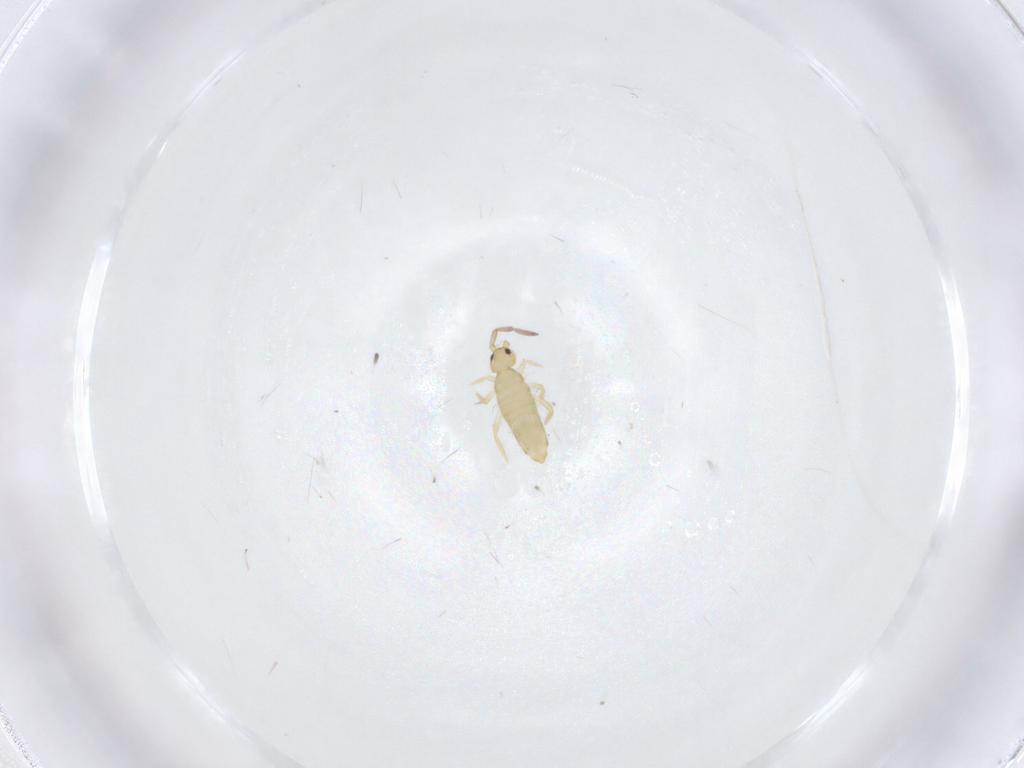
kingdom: Animalia
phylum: Arthropoda
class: Collembola
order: Entomobryomorpha
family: Entomobryidae
